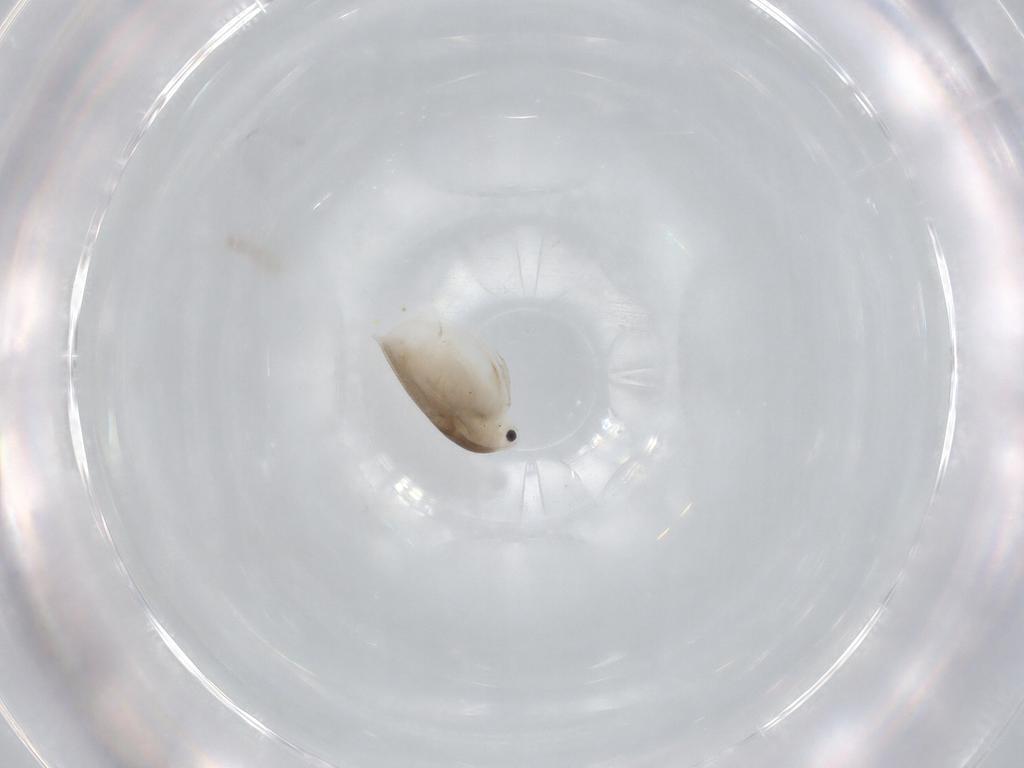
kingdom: Animalia
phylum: Arthropoda
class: Branchiopoda
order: Diplostraca
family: Daphniidae
